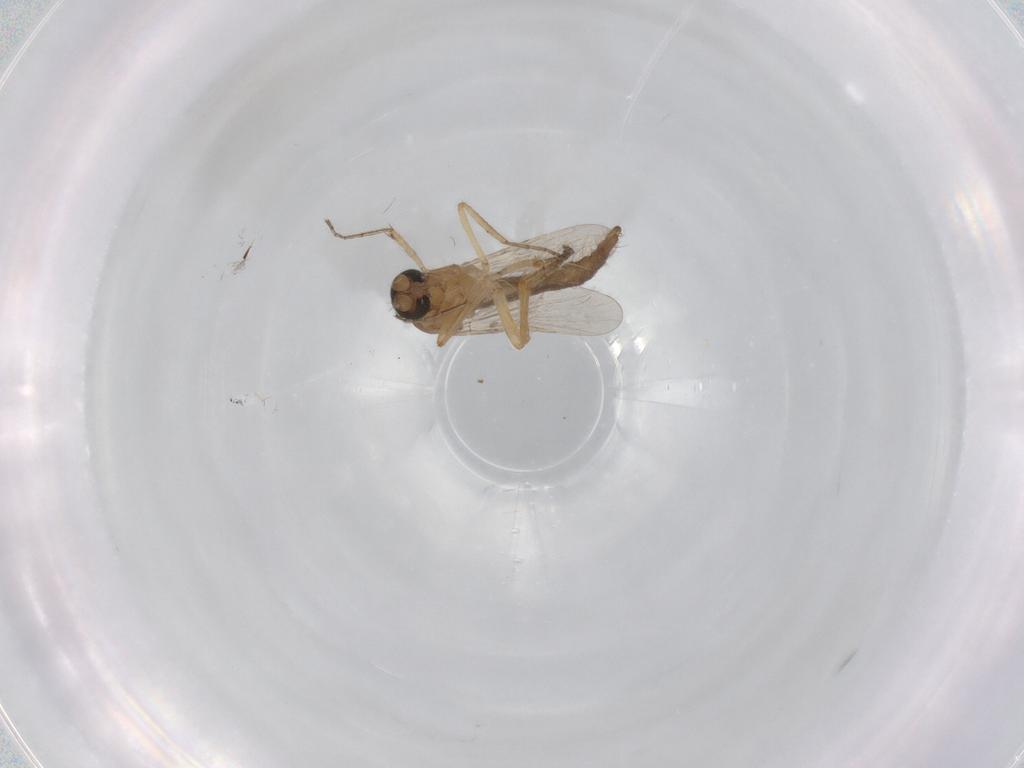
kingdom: Animalia
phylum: Arthropoda
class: Insecta
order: Diptera
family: Ceratopogonidae
